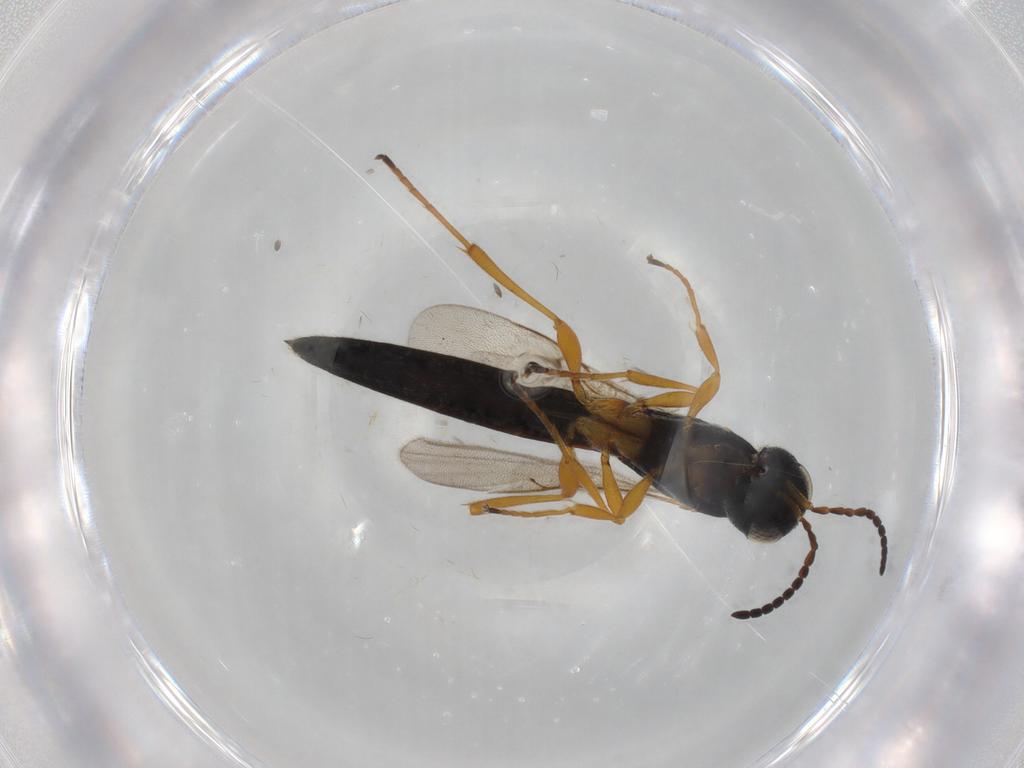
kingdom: Animalia
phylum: Arthropoda
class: Insecta
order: Hymenoptera
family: Scelionidae
